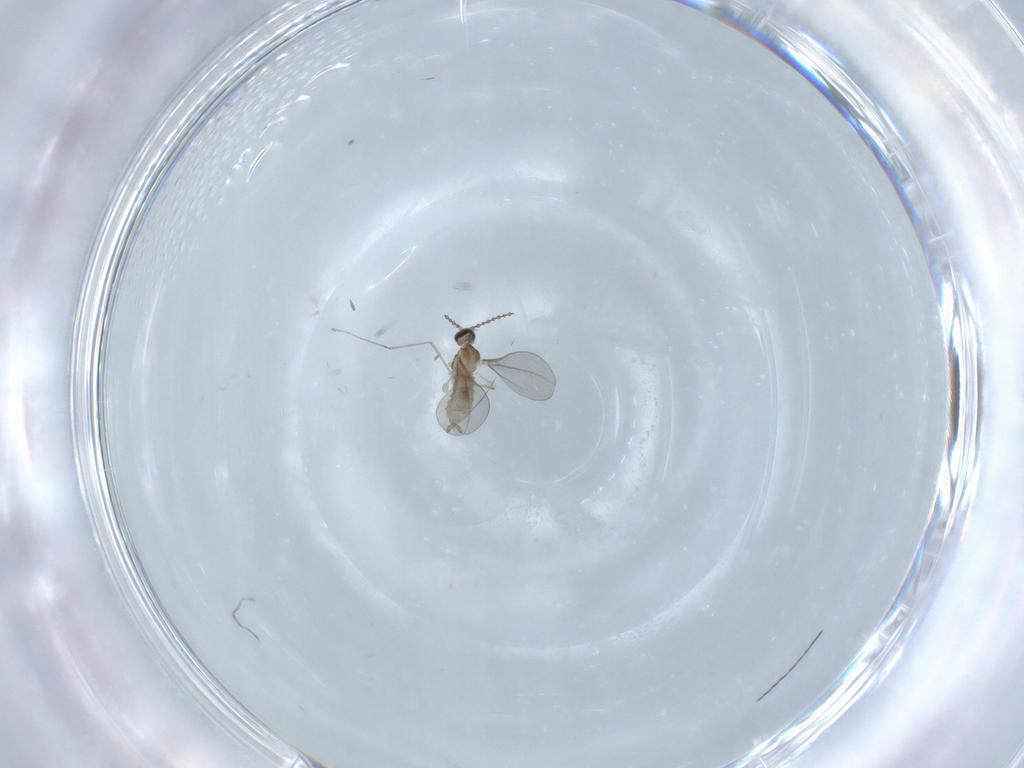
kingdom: Animalia
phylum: Arthropoda
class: Insecta
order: Diptera
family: Cecidomyiidae
